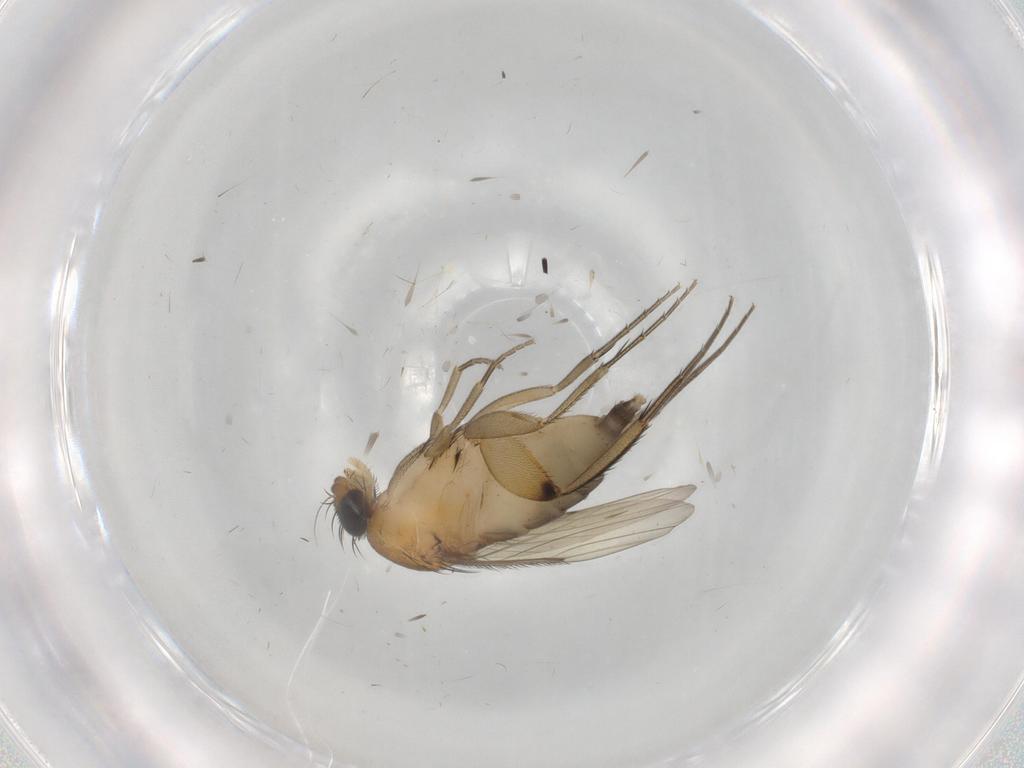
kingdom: Animalia
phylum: Arthropoda
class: Insecta
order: Diptera
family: Phoridae
